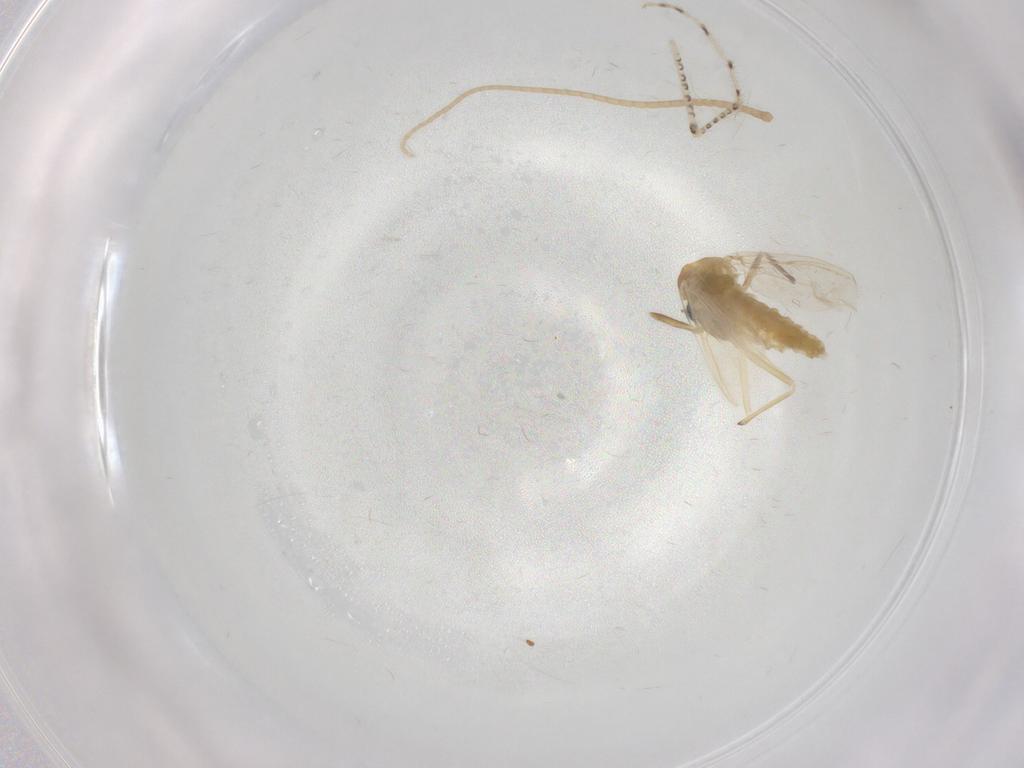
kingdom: Animalia
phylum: Arthropoda
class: Insecta
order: Diptera
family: Chaoboridae
